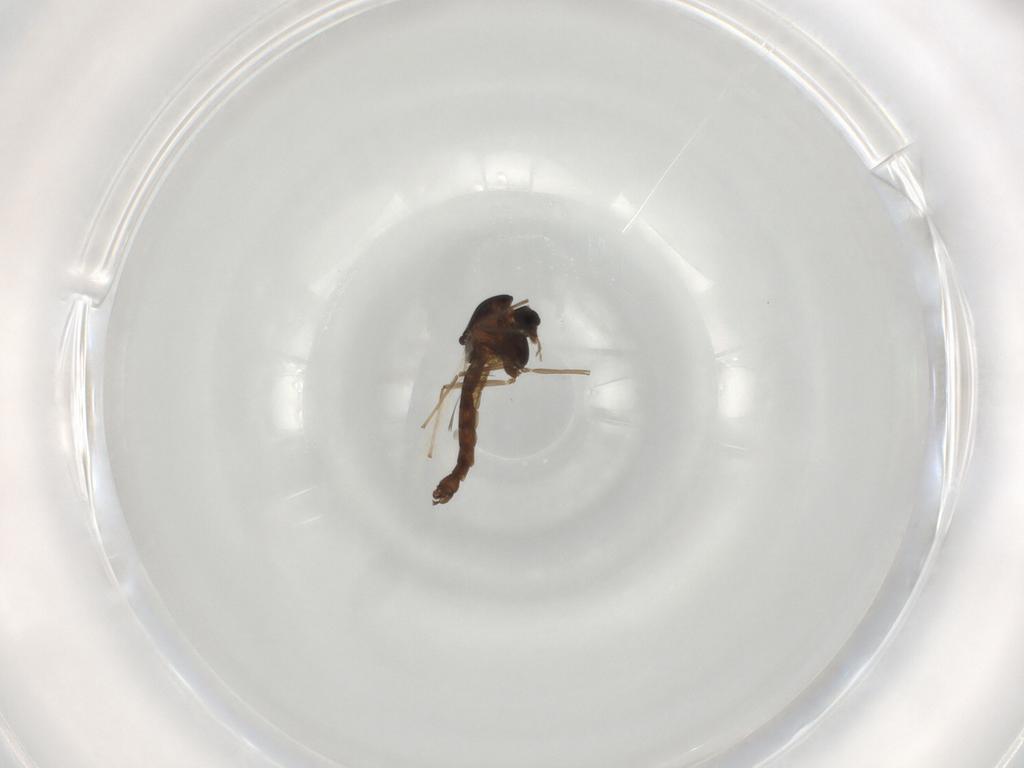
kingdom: Animalia
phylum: Arthropoda
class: Insecta
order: Diptera
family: Chironomidae
